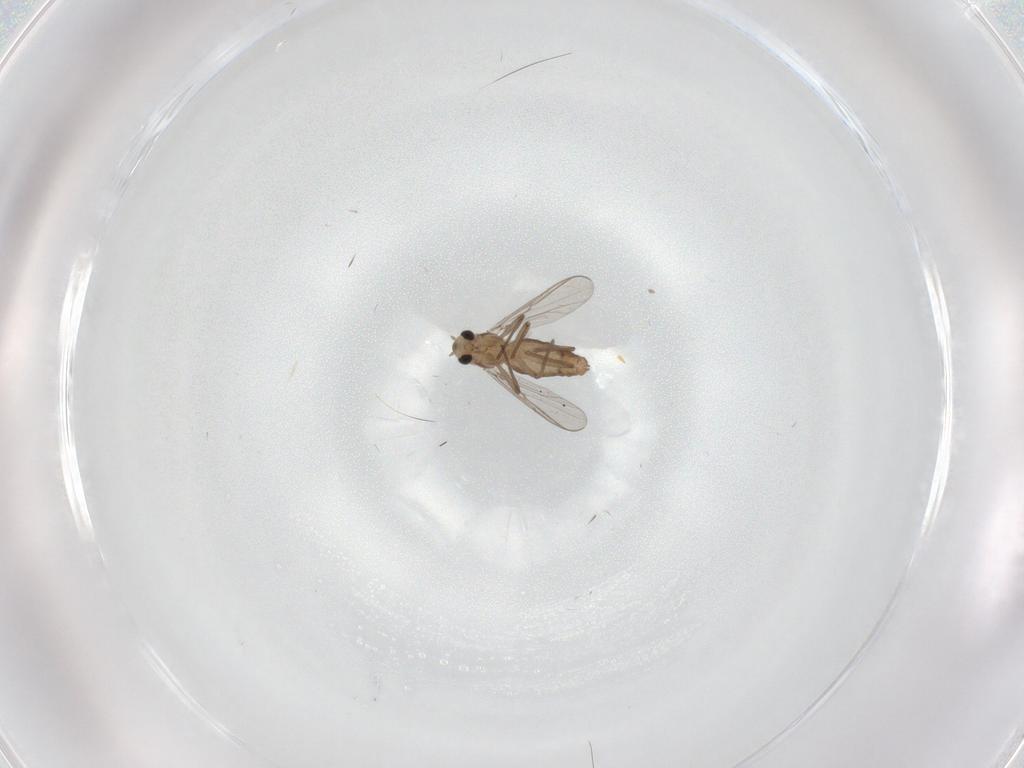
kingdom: Animalia
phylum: Arthropoda
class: Insecta
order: Diptera
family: Chironomidae
